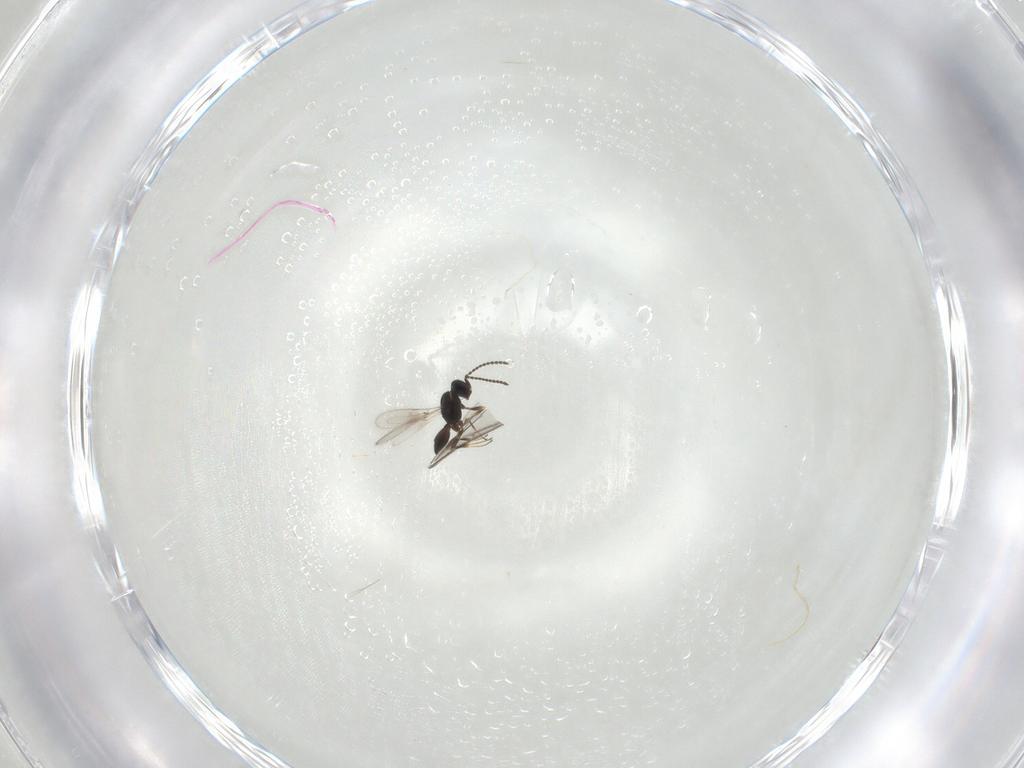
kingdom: Animalia
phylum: Arthropoda
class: Insecta
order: Hymenoptera
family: Scelionidae
